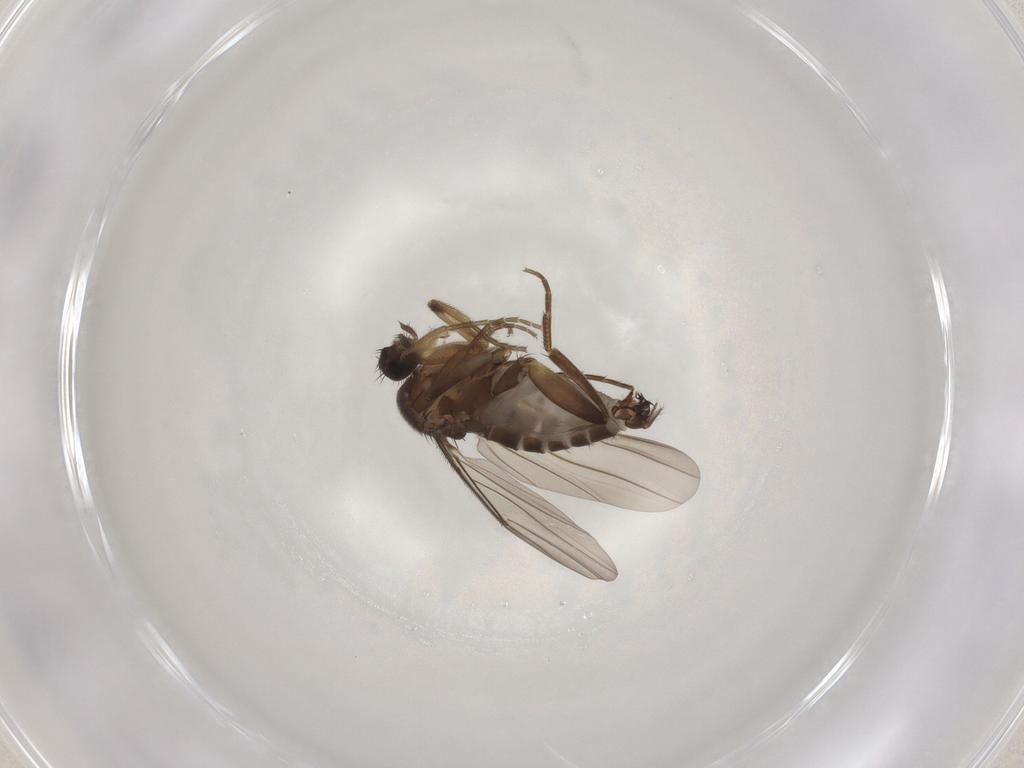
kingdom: Animalia
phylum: Arthropoda
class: Insecta
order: Diptera
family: Phoridae
